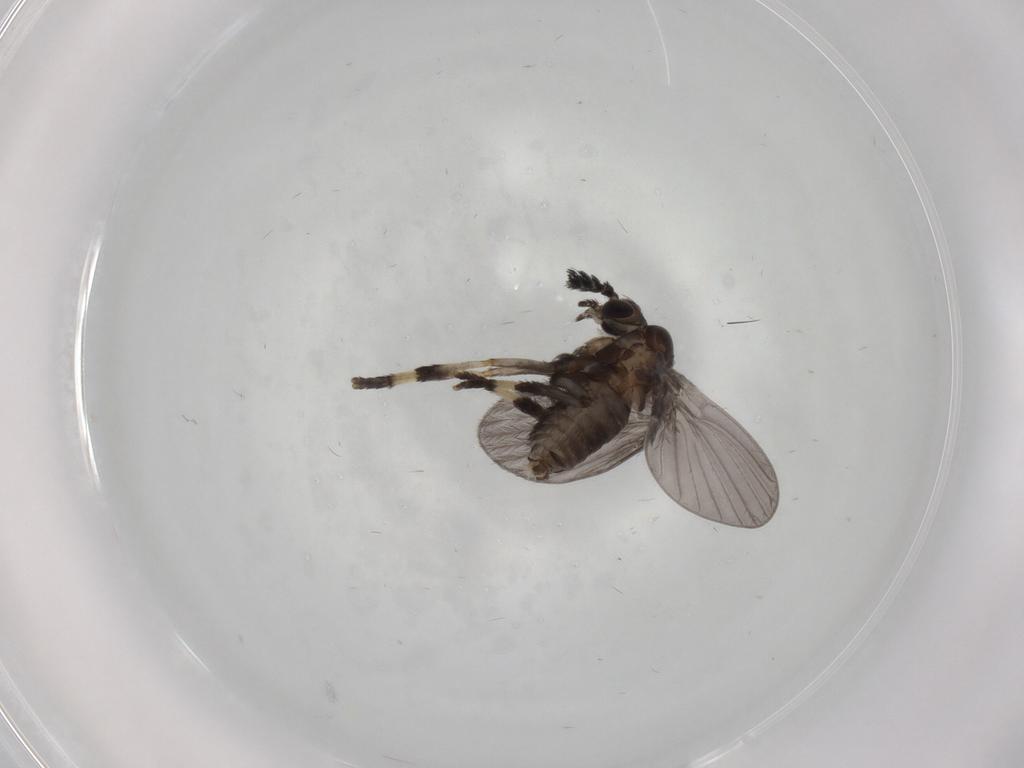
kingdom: Animalia
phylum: Arthropoda
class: Insecta
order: Diptera
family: Psychodidae
